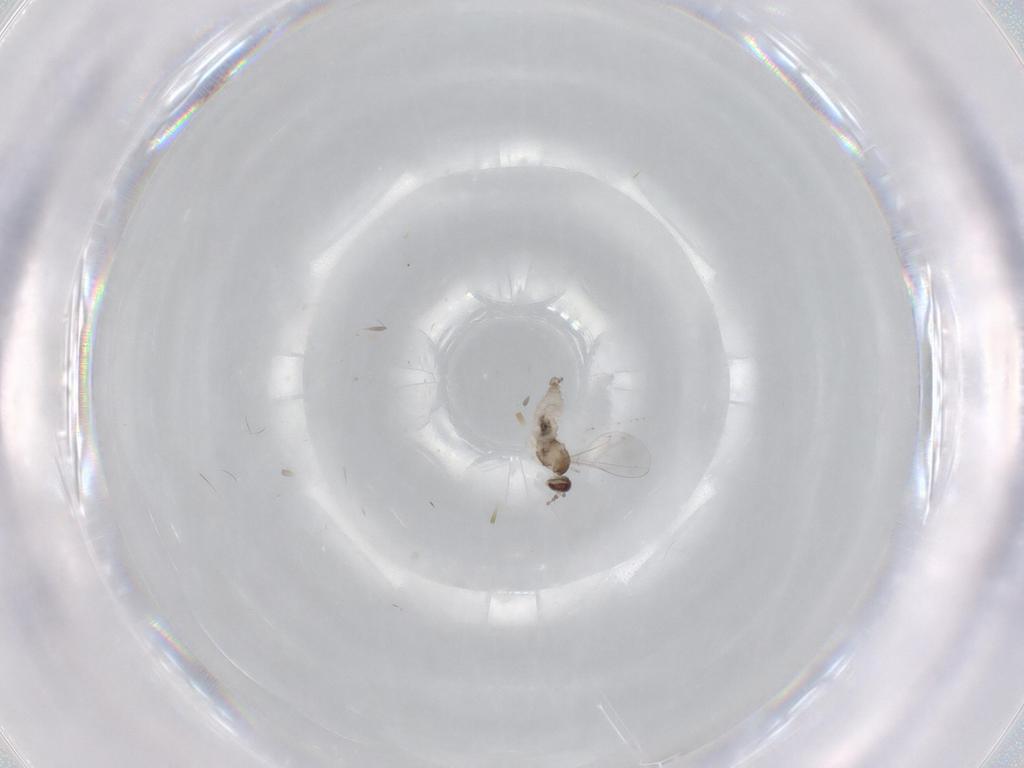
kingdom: Animalia
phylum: Arthropoda
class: Insecta
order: Diptera
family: Cecidomyiidae
